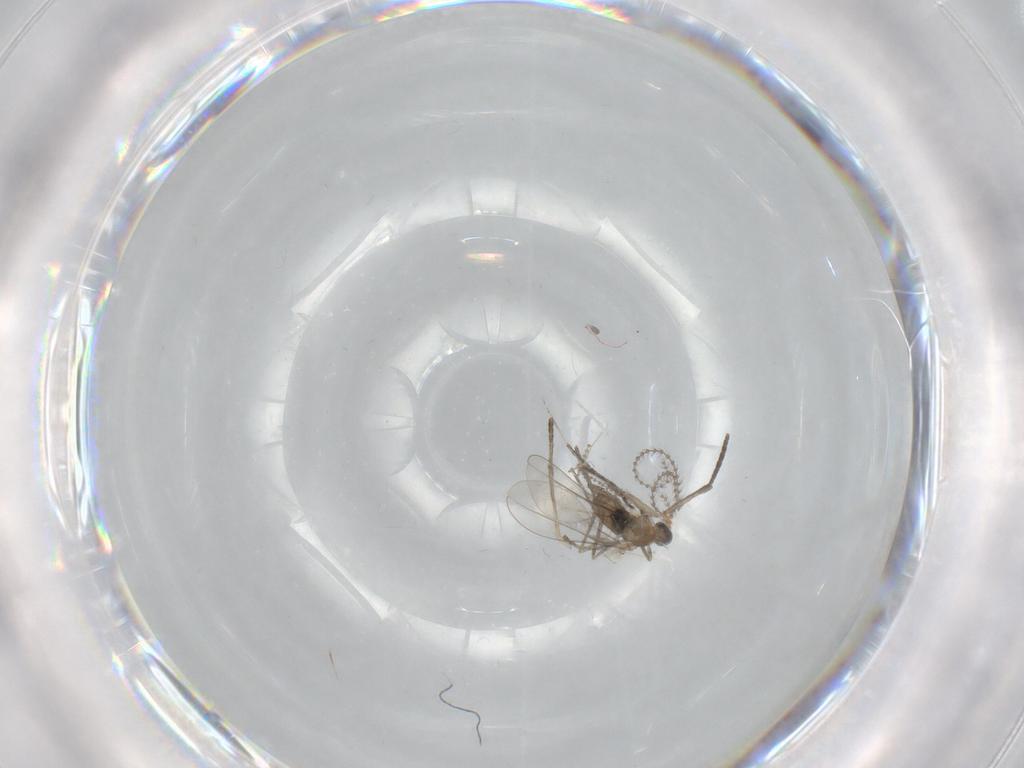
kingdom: Animalia
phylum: Arthropoda
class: Insecta
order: Diptera
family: Cecidomyiidae
